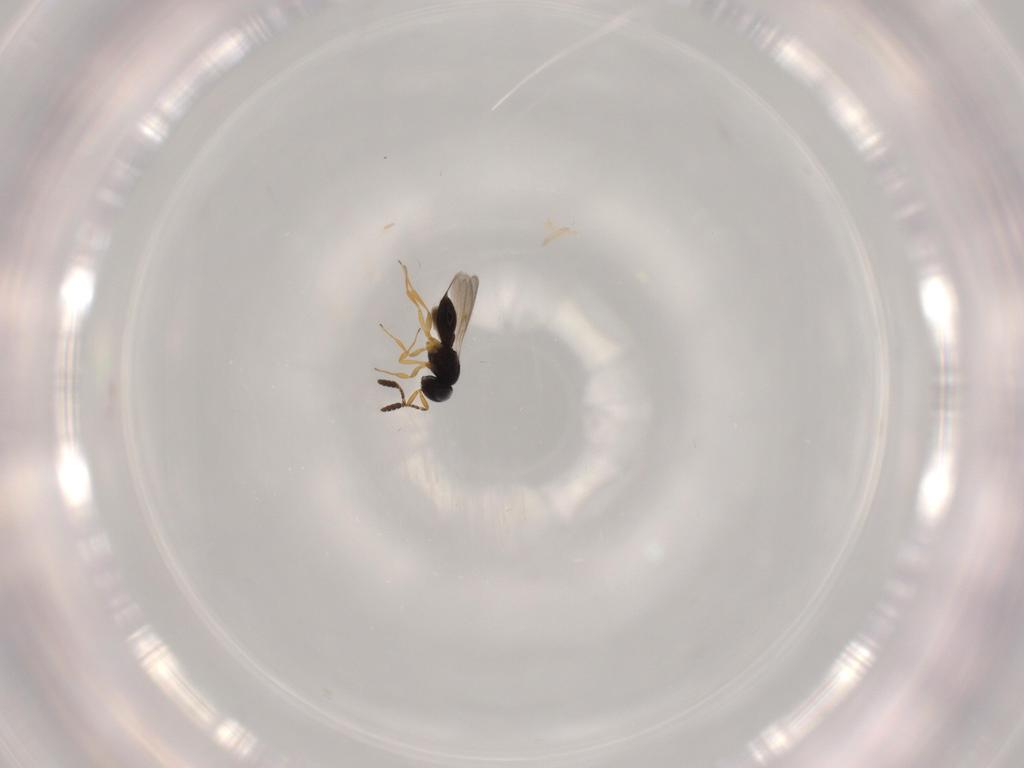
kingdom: Animalia
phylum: Arthropoda
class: Insecta
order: Hymenoptera
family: Scelionidae
